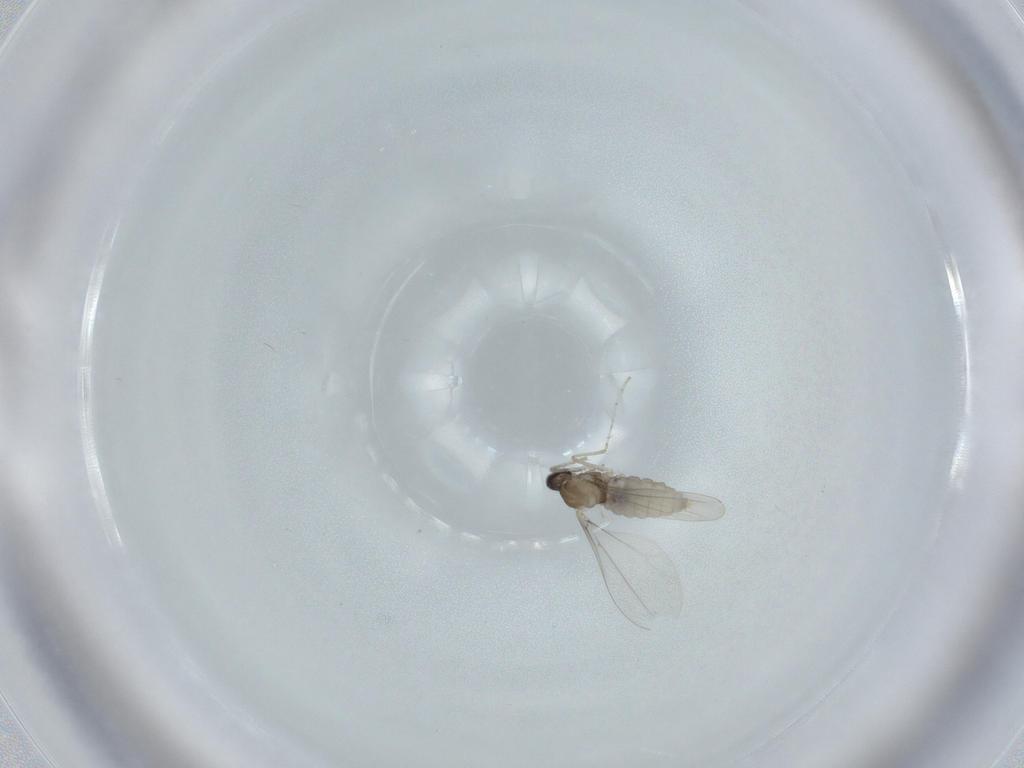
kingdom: Animalia
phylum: Arthropoda
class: Insecta
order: Diptera
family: Cecidomyiidae
